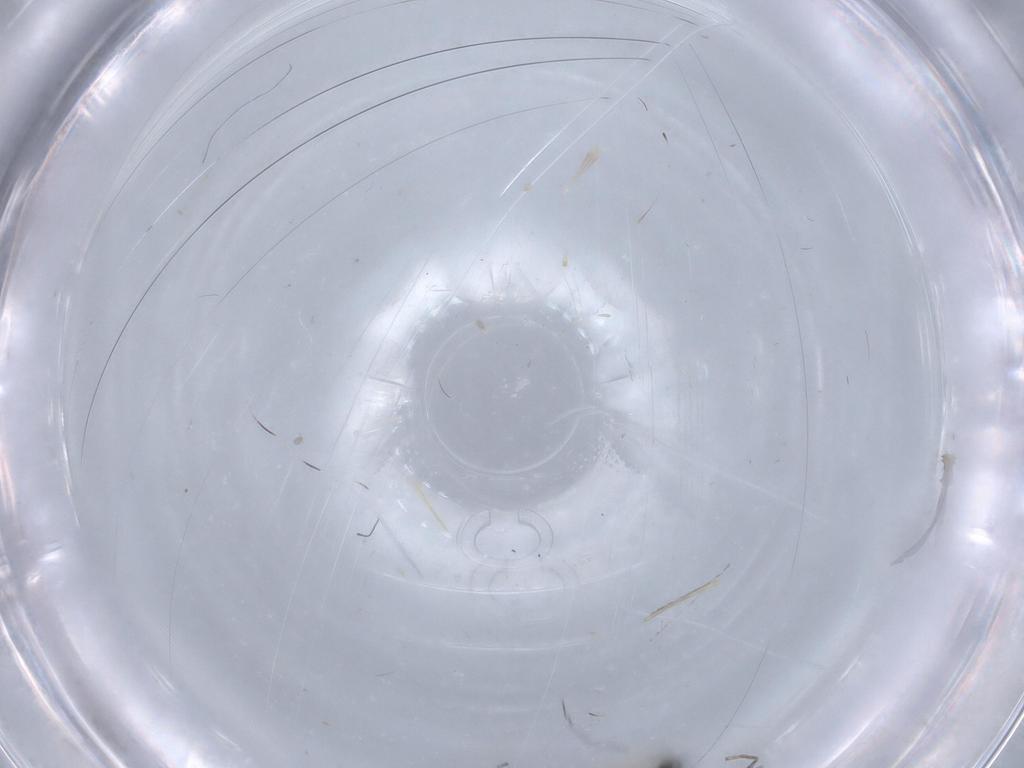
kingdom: Animalia
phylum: Arthropoda
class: Insecta
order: Diptera
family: Cecidomyiidae
